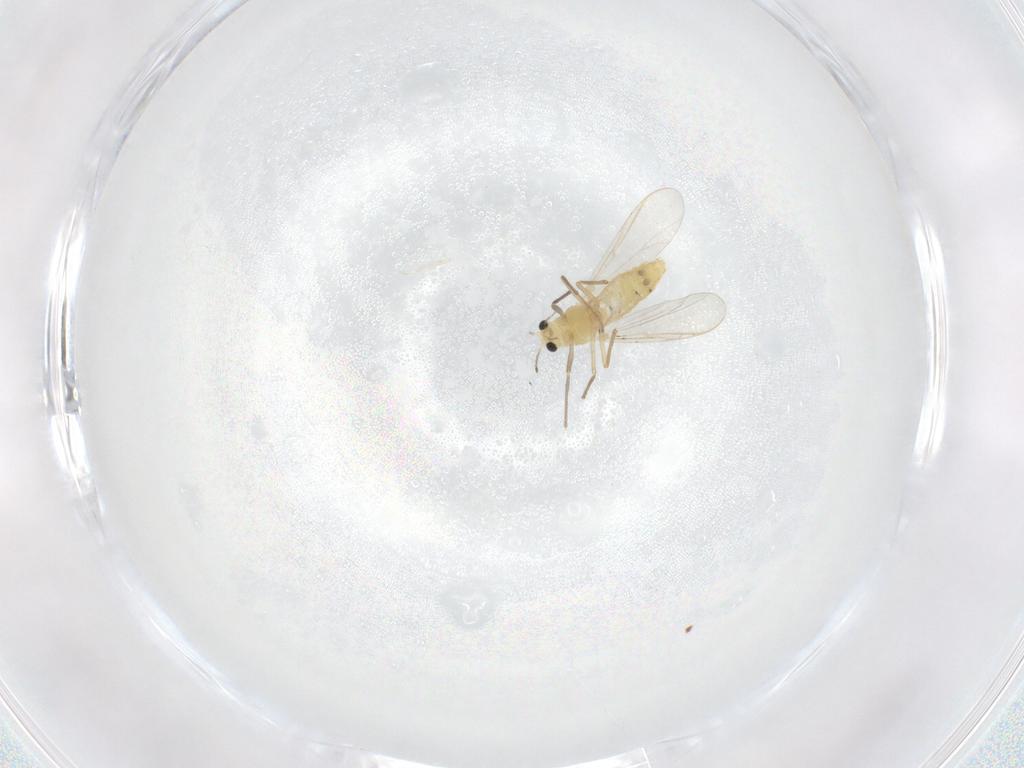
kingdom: Animalia
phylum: Arthropoda
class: Insecta
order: Diptera
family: Chironomidae
